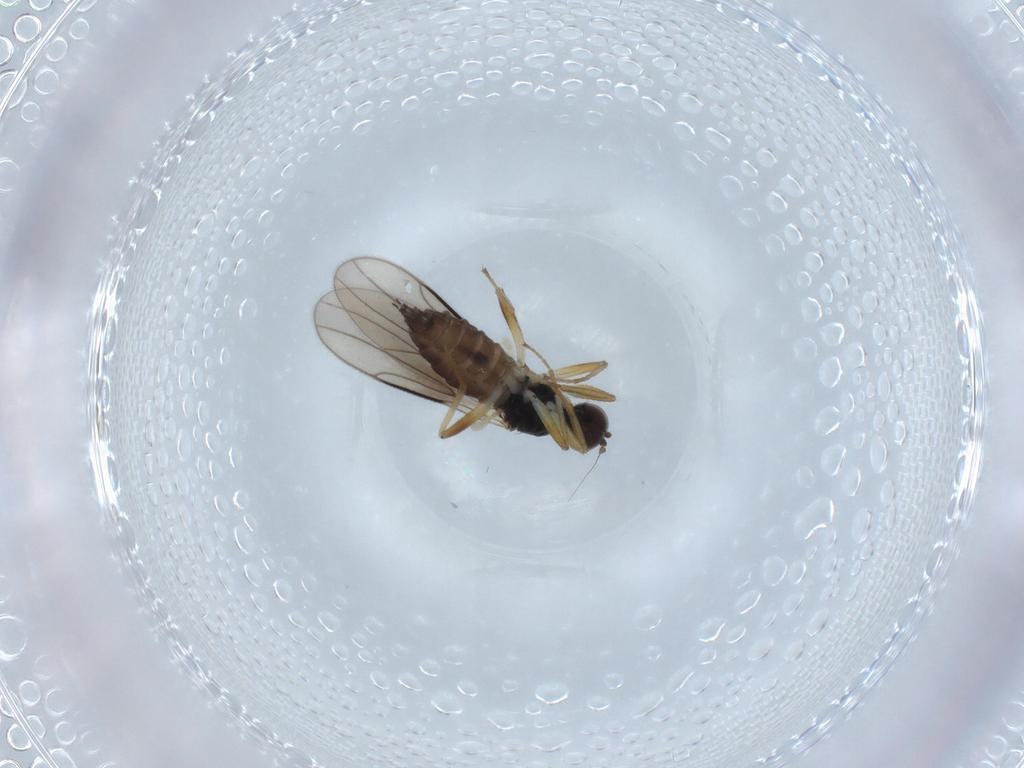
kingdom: Animalia
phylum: Arthropoda
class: Insecta
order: Diptera
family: Hybotidae
